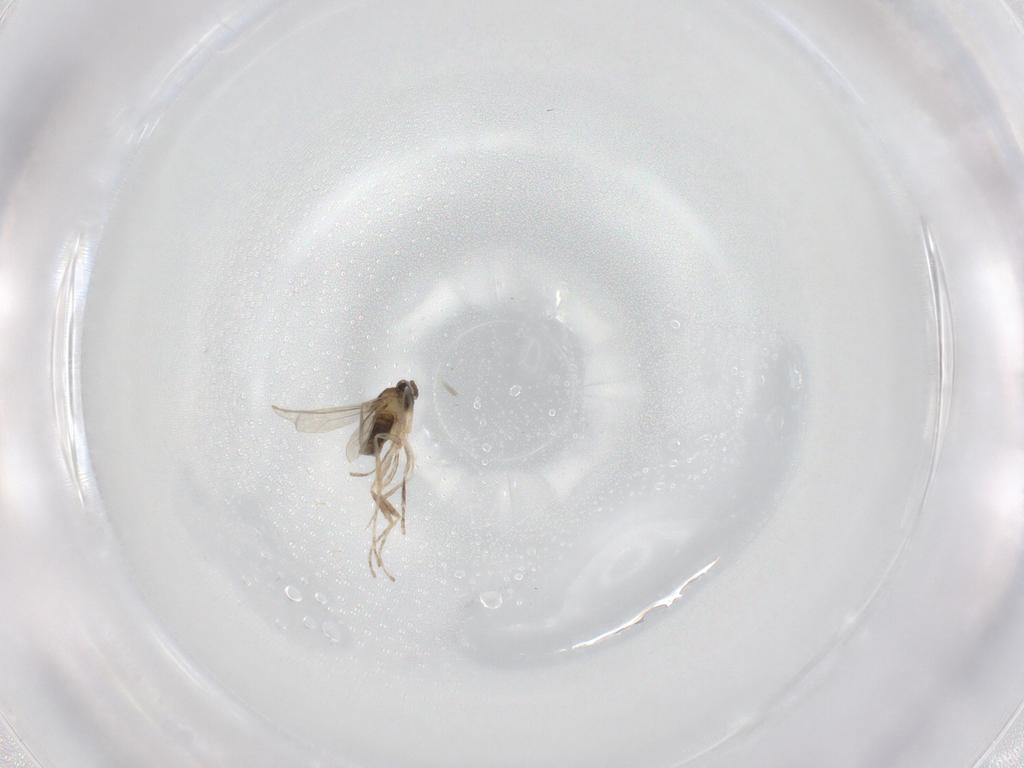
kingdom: Animalia
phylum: Arthropoda
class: Insecta
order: Diptera
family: Cecidomyiidae
